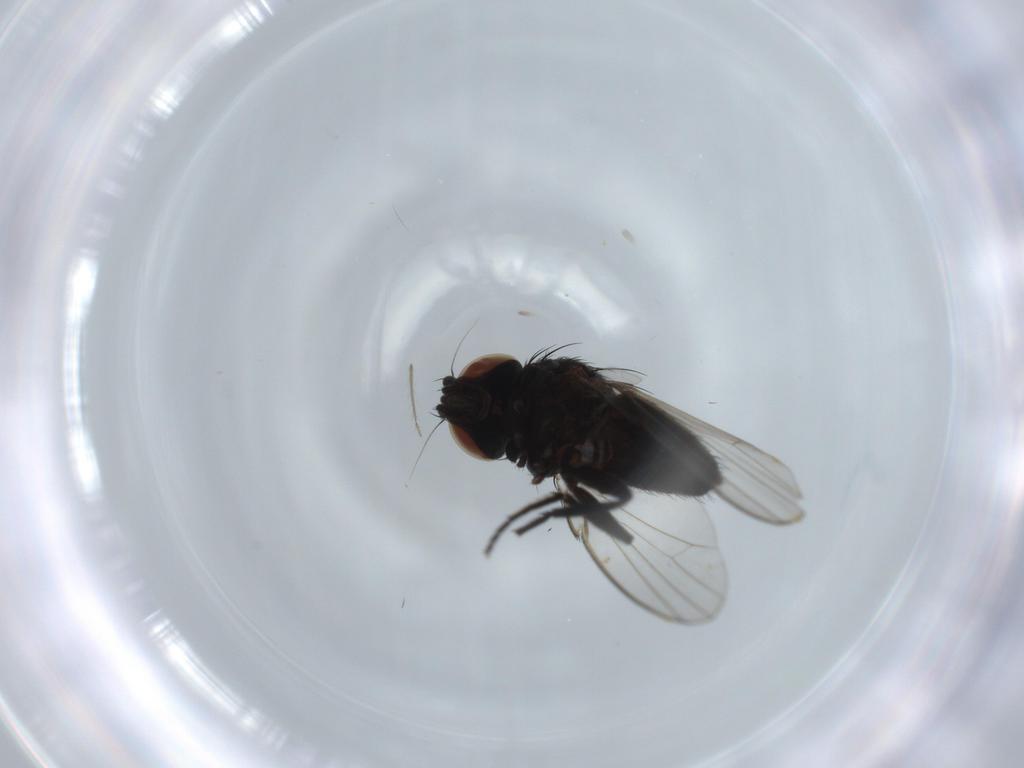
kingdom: Animalia
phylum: Arthropoda
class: Insecta
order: Diptera
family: Milichiidae
